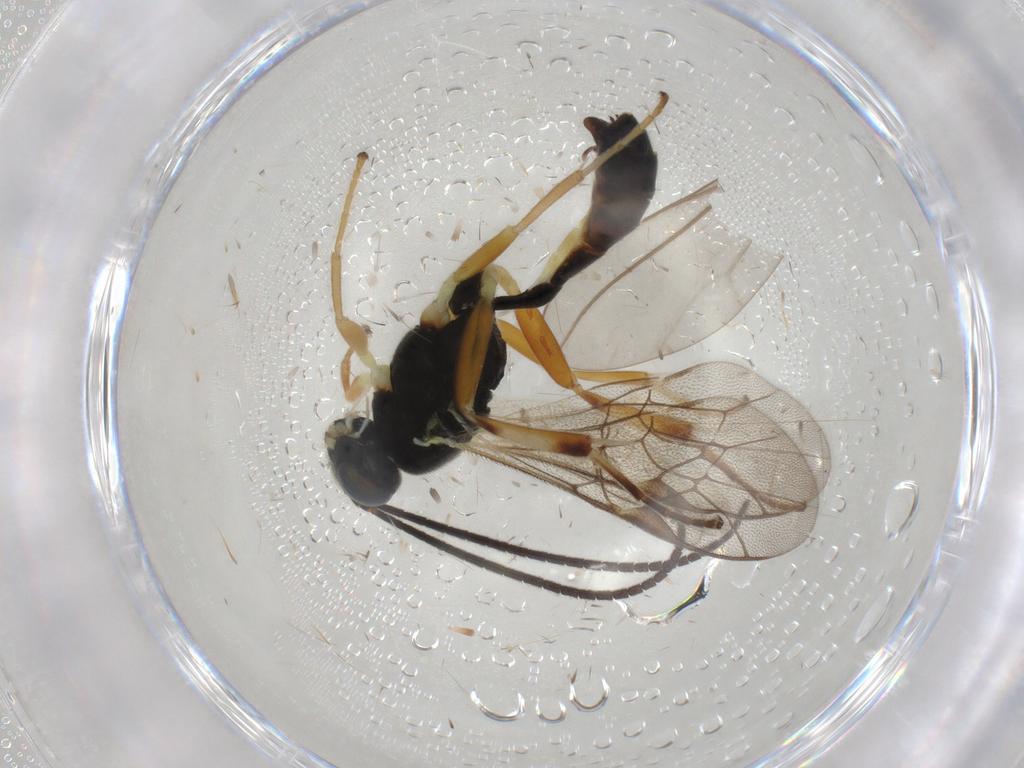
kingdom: Animalia
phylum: Arthropoda
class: Insecta
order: Hymenoptera
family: Ichneumonidae
